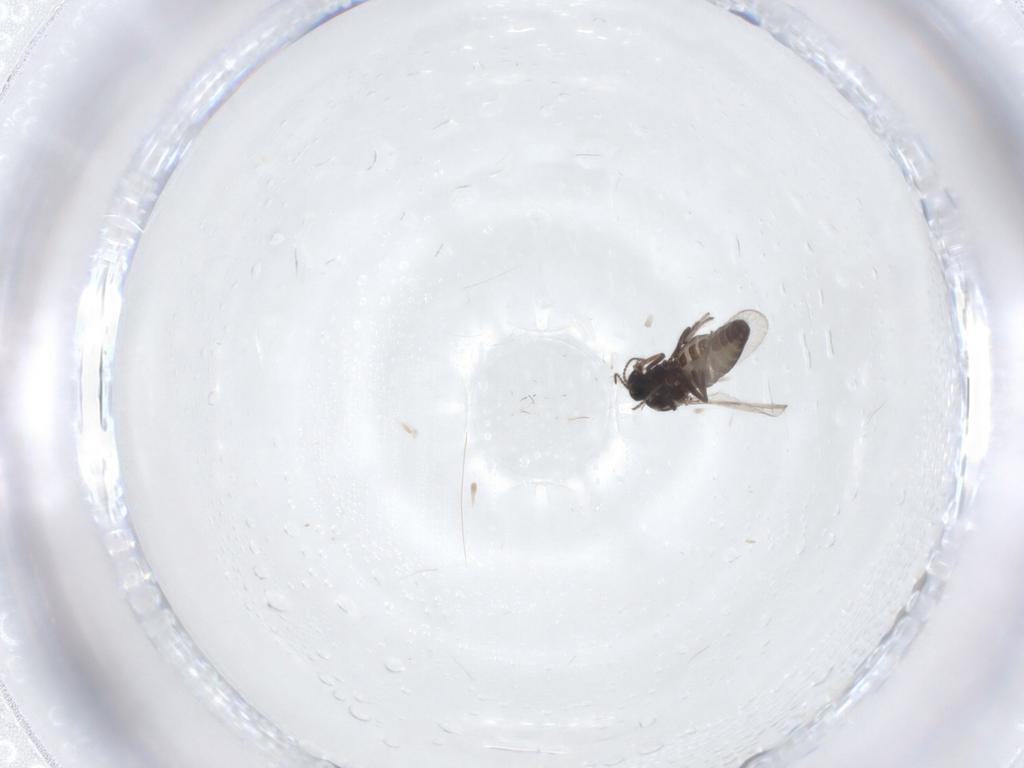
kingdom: Animalia
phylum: Arthropoda
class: Insecta
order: Diptera
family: Ceratopogonidae
